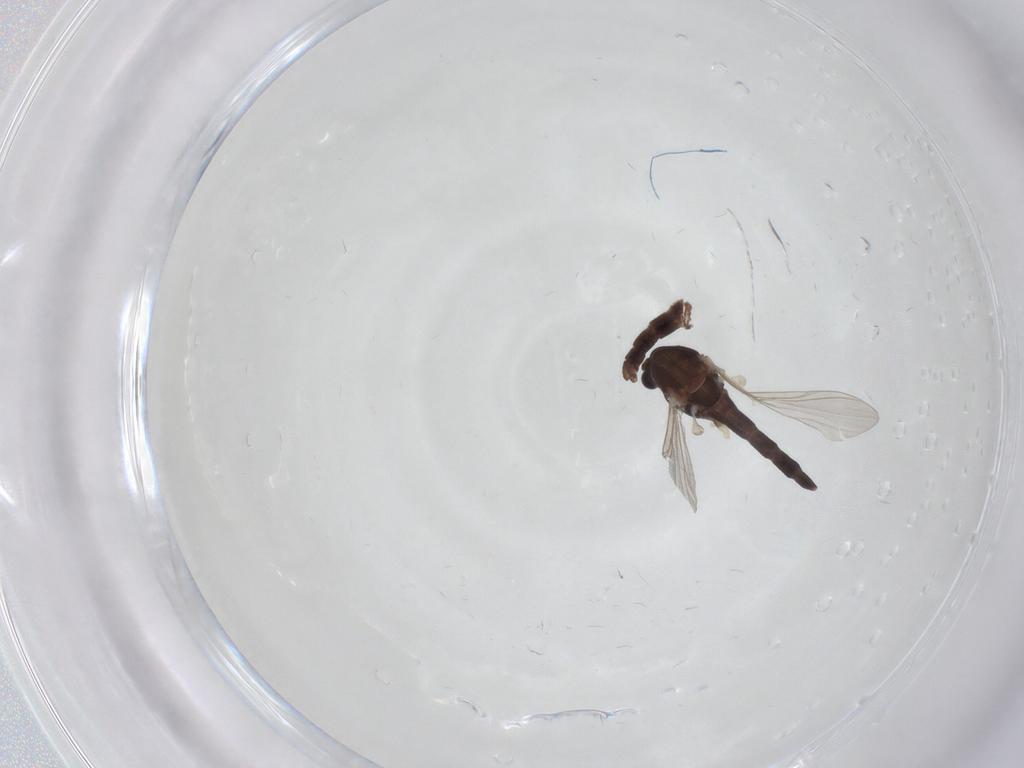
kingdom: Animalia
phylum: Arthropoda
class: Insecta
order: Diptera
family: Chironomidae
